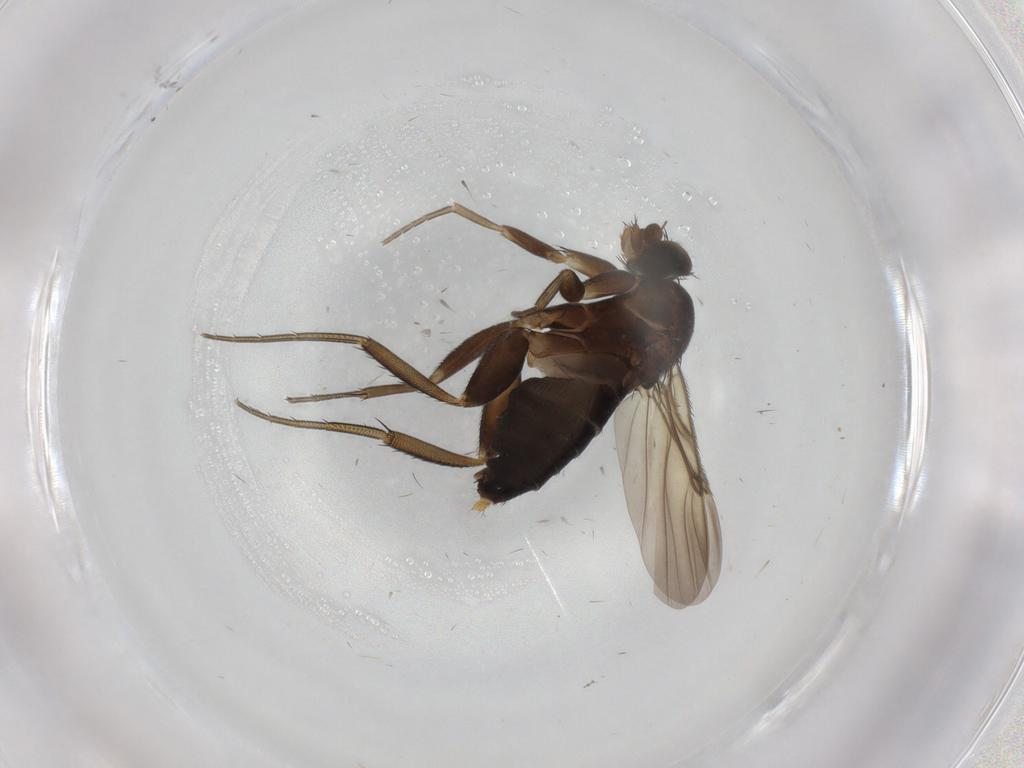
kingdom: Animalia
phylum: Arthropoda
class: Insecta
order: Diptera
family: Phoridae
